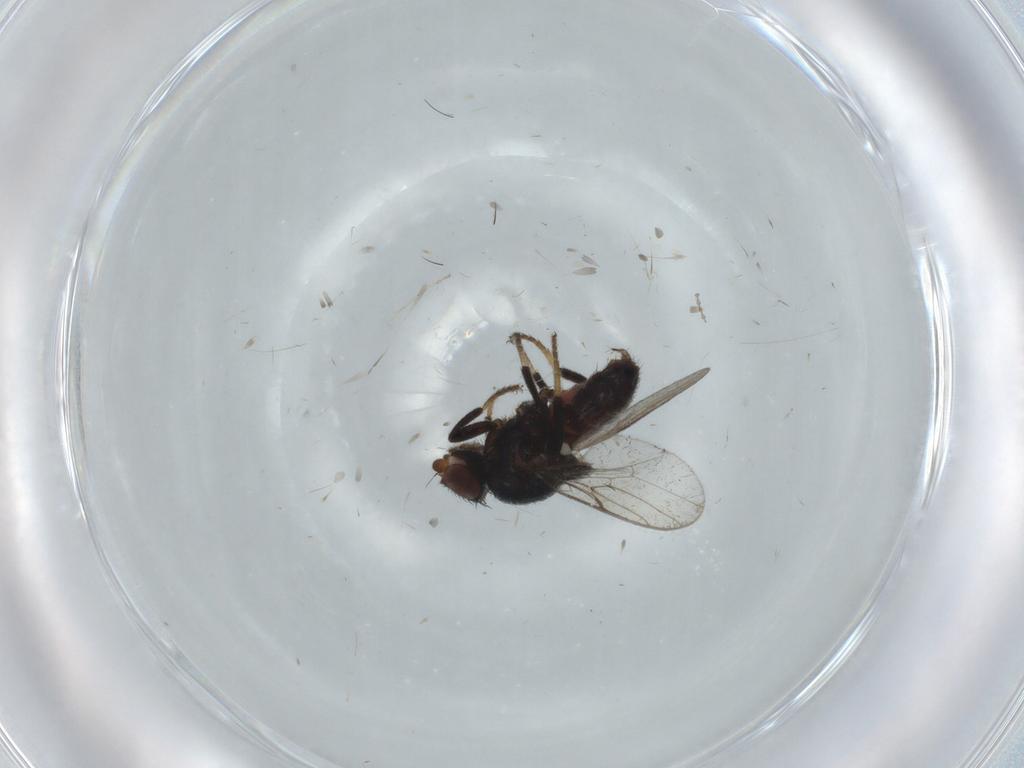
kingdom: Animalia
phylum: Arthropoda
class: Insecta
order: Diptera
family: Chloropidae
